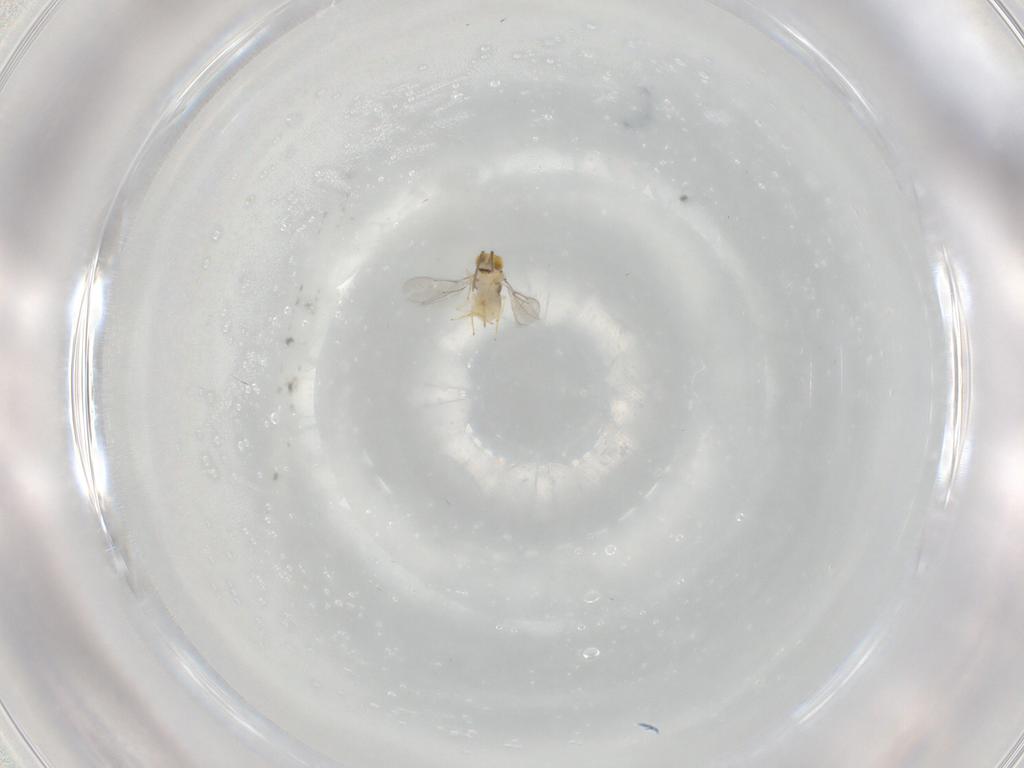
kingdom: Animalia
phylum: Arthropoda
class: Insecta
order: Hymenoptera
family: Aphelinidae
